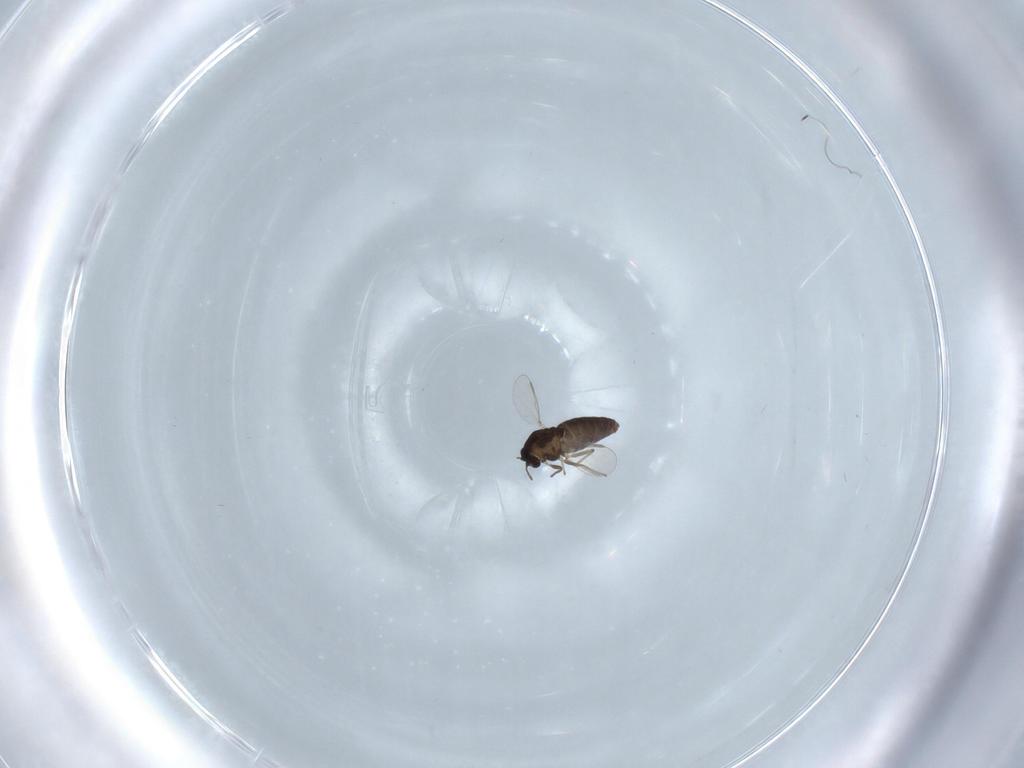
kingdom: Animalia
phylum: Arthropoda
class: Insecta
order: Diptera
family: Chironomidae
